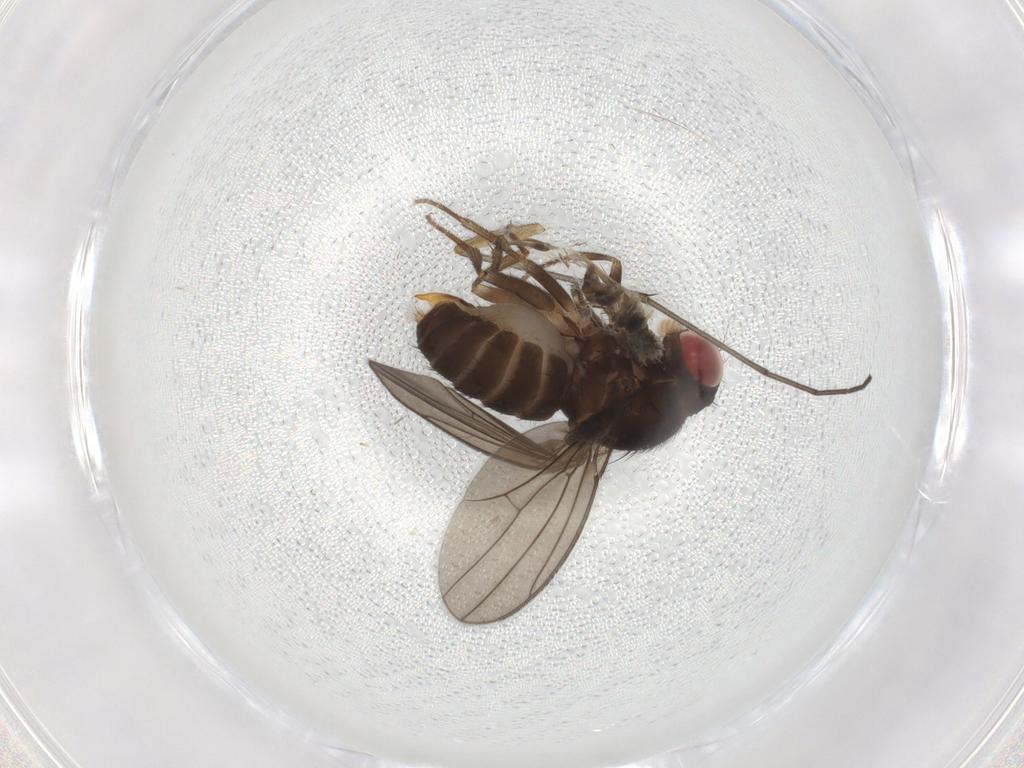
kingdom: Animalia
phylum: Arthropoda
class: Insecta
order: Diptera
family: Drosophilidae
